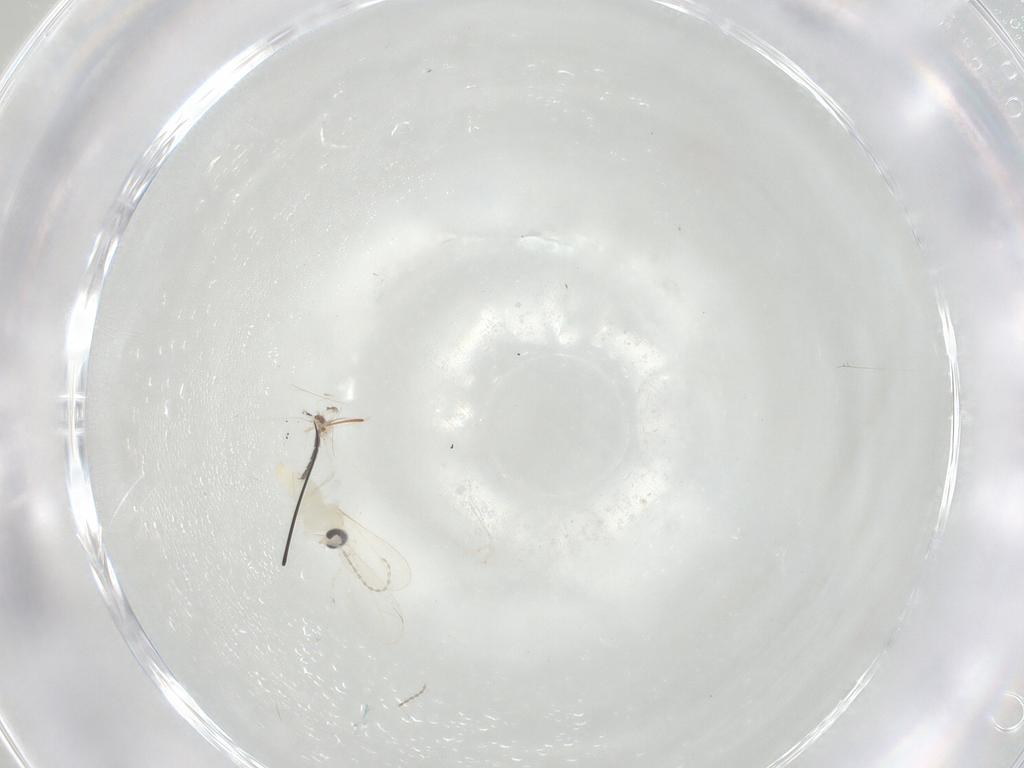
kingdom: Animalia
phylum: Arthropoda
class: Insecta
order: Diptera
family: Cecidomyiidae
